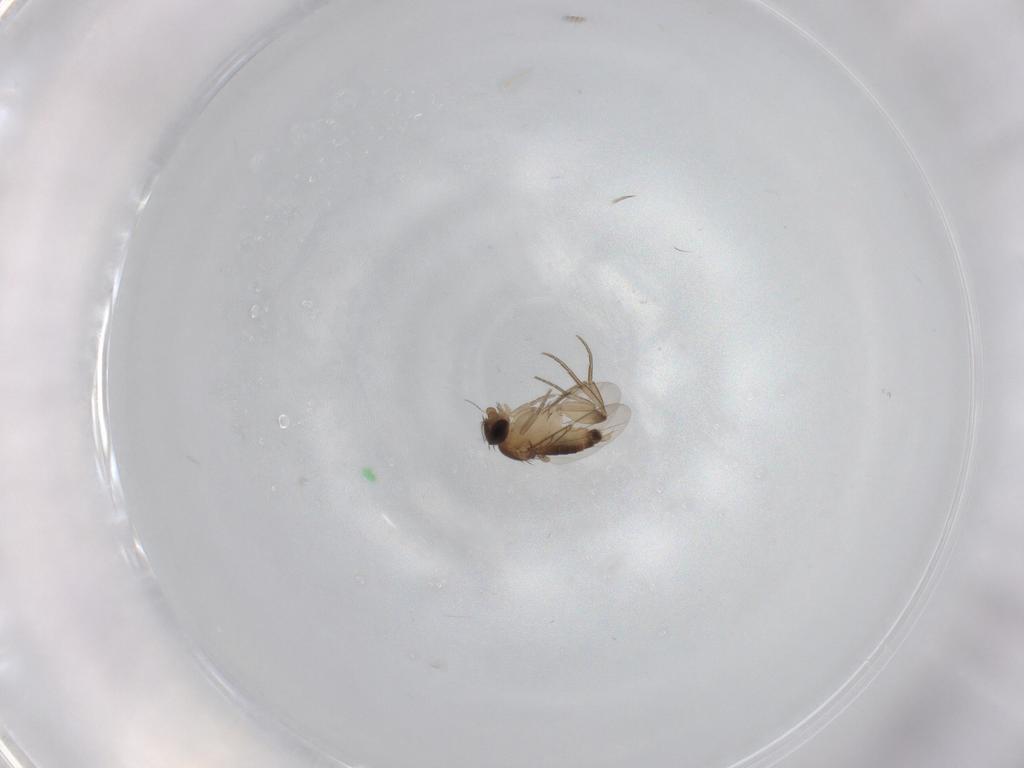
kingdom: Animalia
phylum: Arthropoda
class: Insecta
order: Diptera
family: Phoridae
